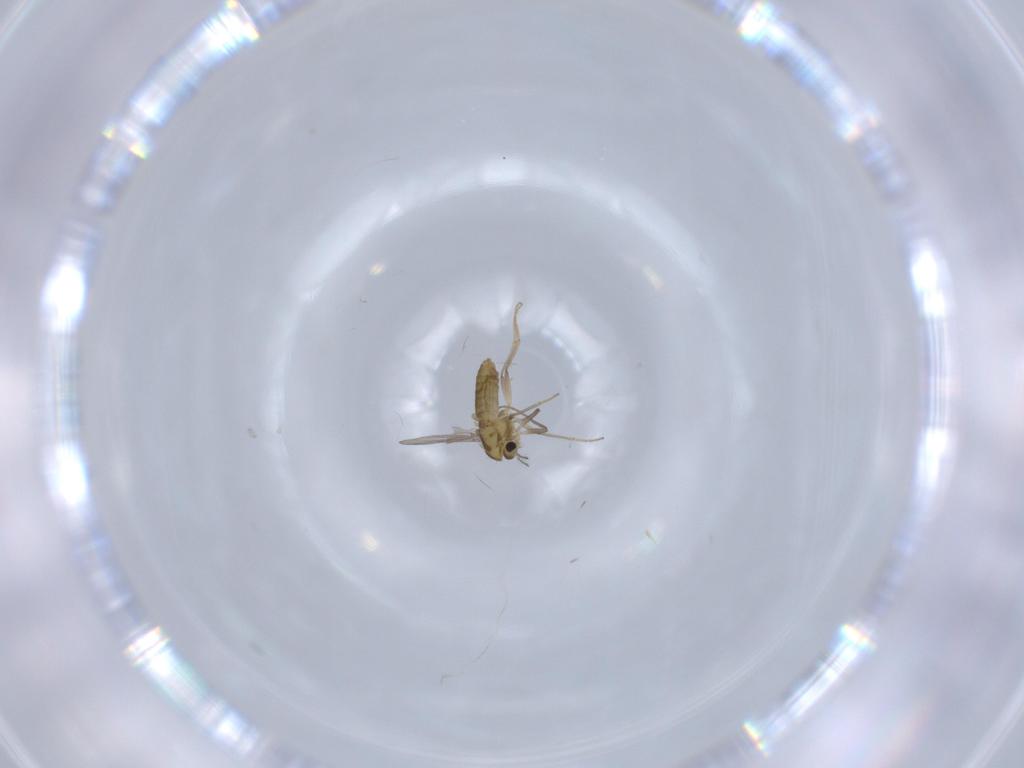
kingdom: Animalia
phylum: Arthropoda
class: Insecta
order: Diptera
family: Chironomidae
